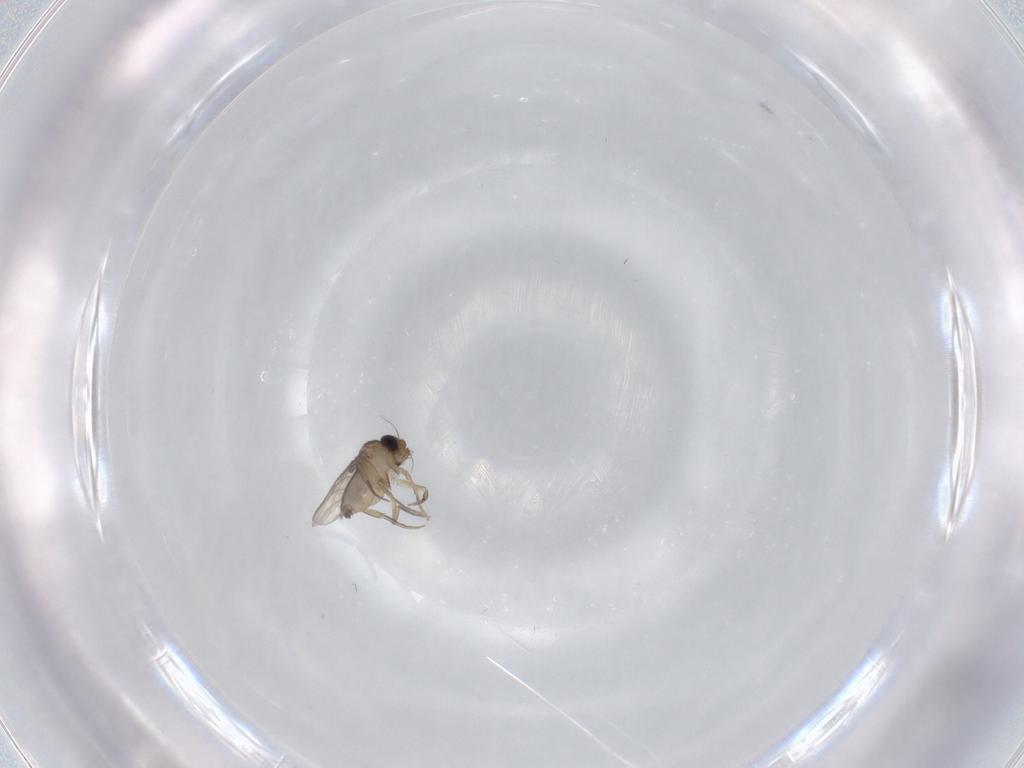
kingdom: Animalia
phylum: Arthropoda
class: Insecta
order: Diptera
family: Phoridae
